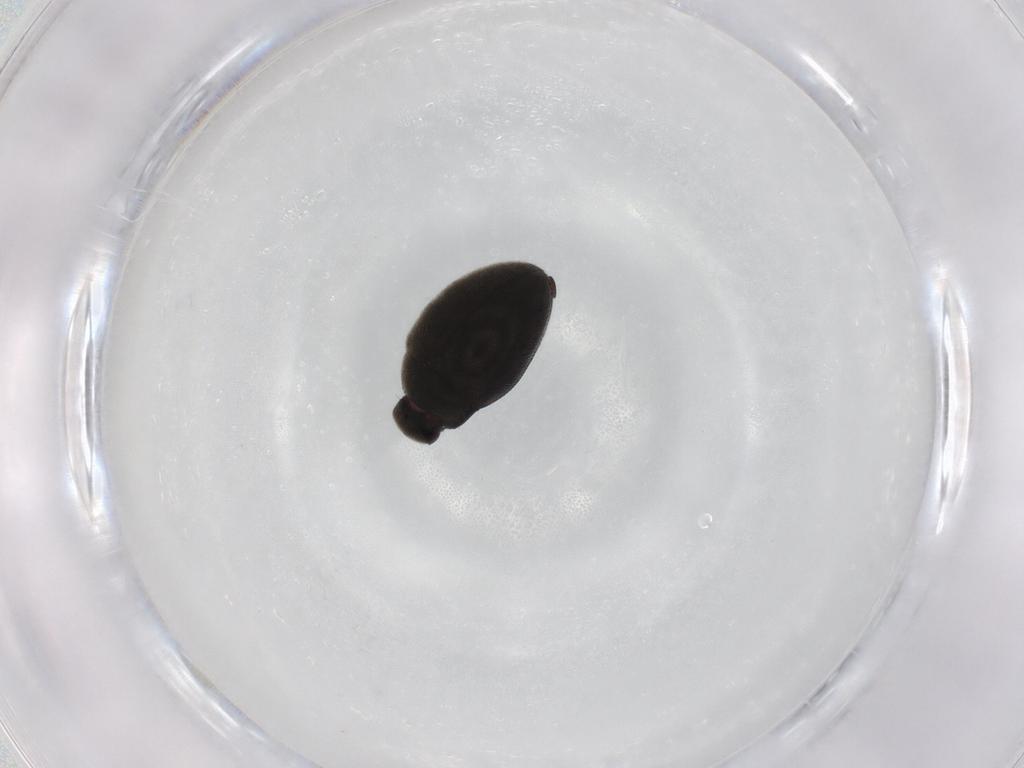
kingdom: Animalia
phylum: Arthropoda
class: Insecta
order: Coleoptera
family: Limnichidae
